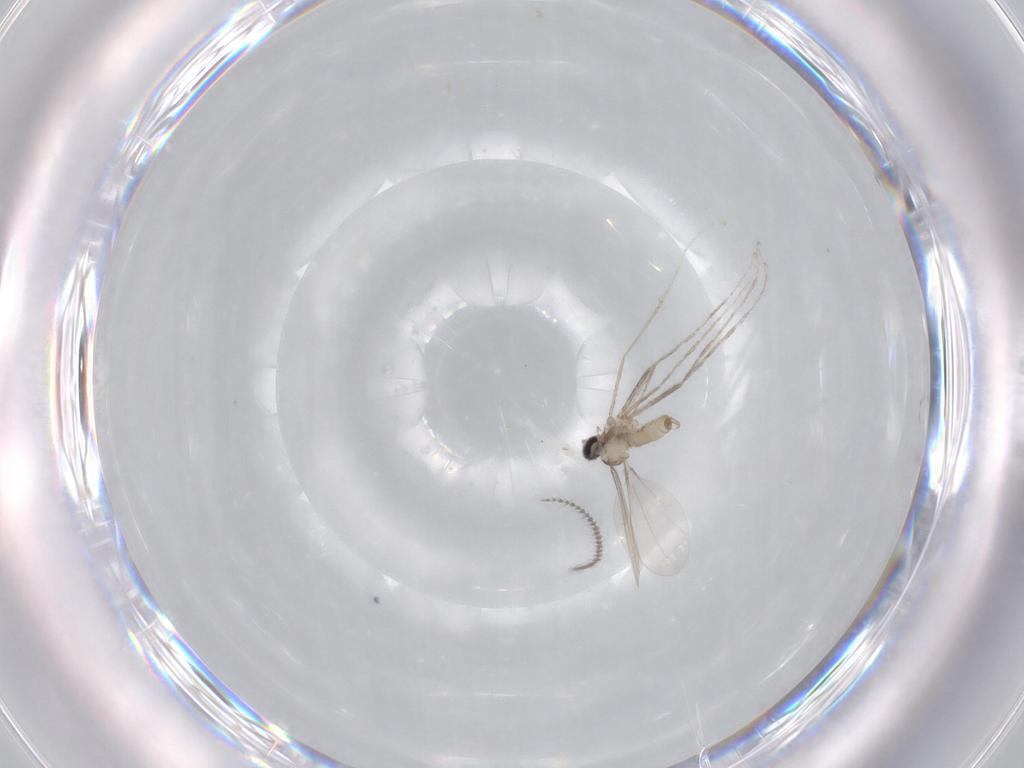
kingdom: Animalia
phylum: Arthropoda
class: Insecta
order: Diptera
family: Cecidomyiidae
